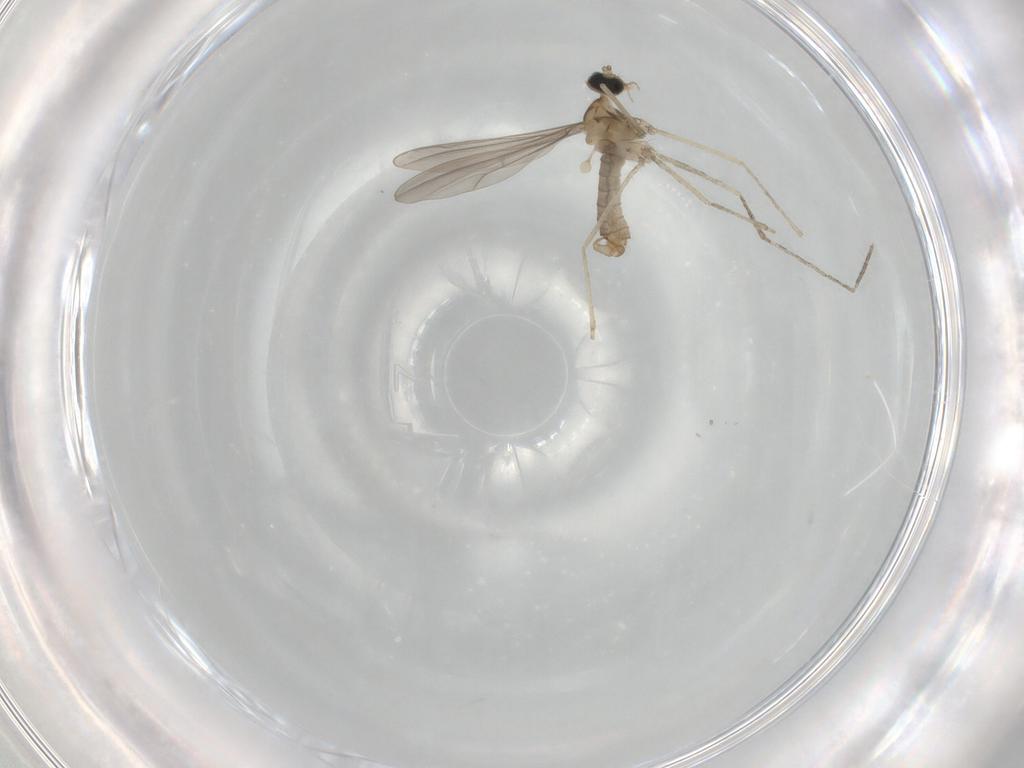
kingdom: Animalia
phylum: Arthropoda
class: Insecta
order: Diptera
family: Cecidomyiidae
